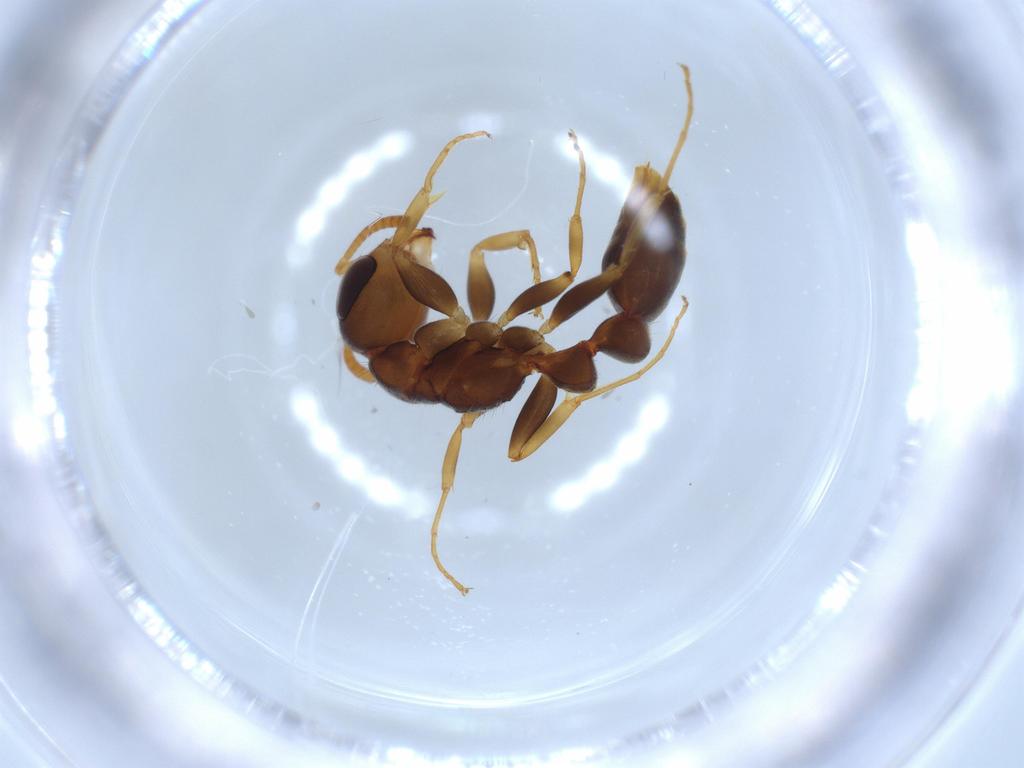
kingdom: Animalia
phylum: Arthropoda
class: Insecta
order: Hymenoptera
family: Formicidae
